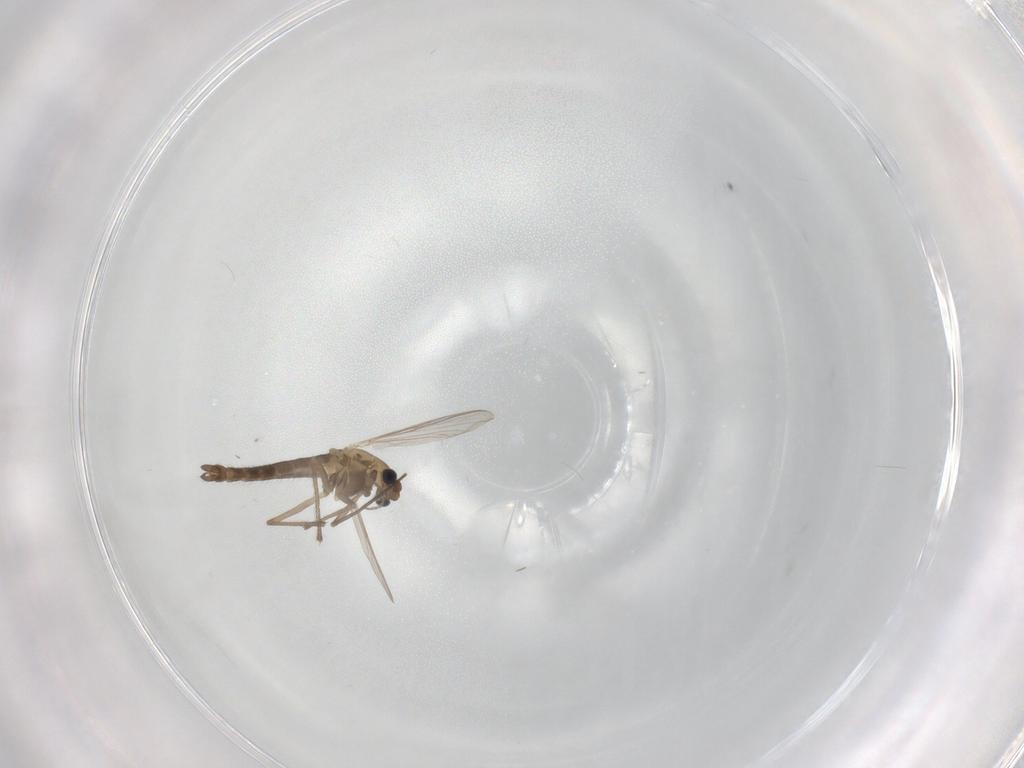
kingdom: Animalia
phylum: Arthropoda
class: Insecta
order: Diptera
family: Chironomidae
